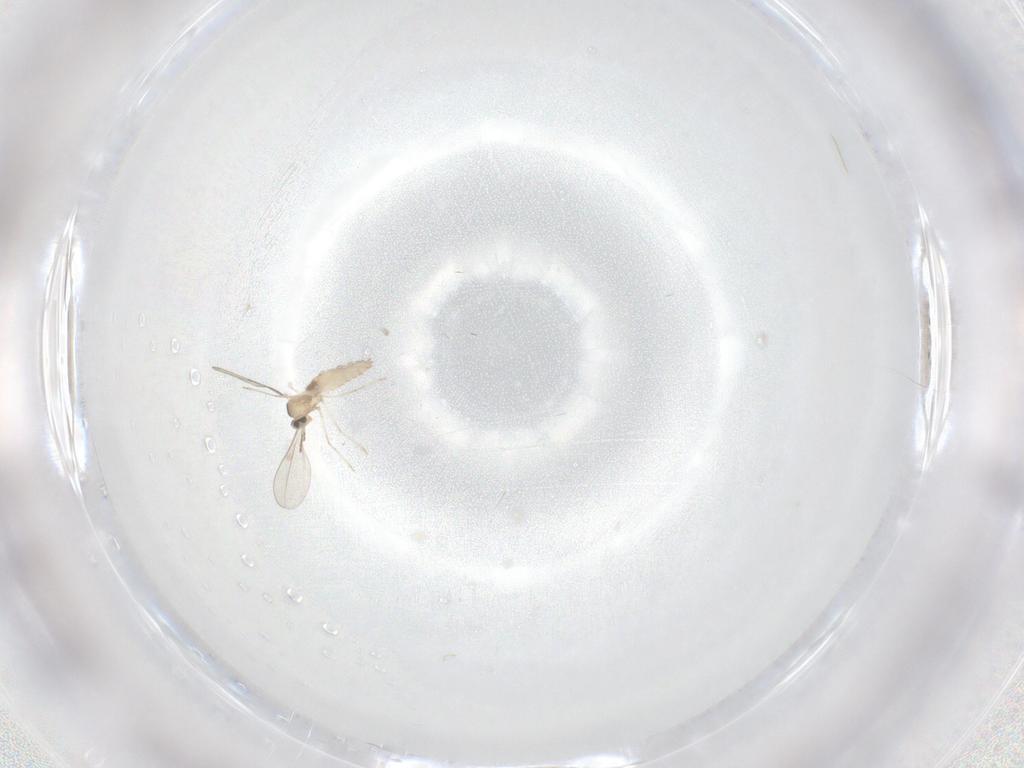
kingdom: Animalia
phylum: Arthropoda
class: Insecta
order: Diptera
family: Cecidomyiidae
